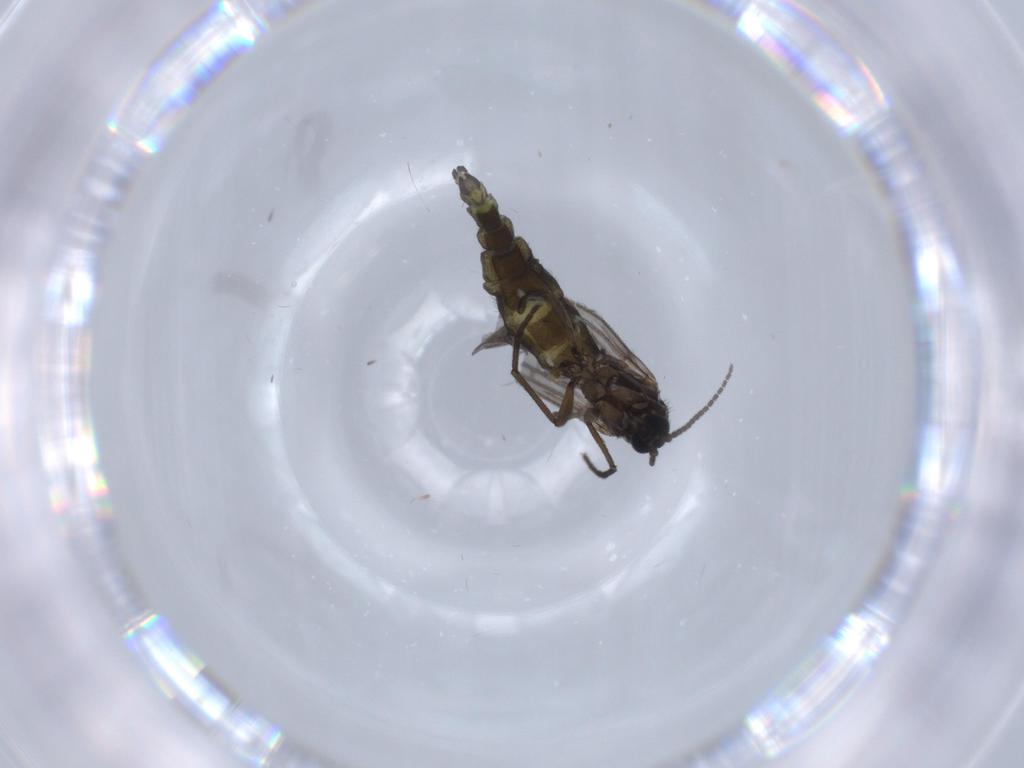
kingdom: Animalia
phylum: Arthropoda
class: Insecta
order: Diptera
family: Sciaridae
